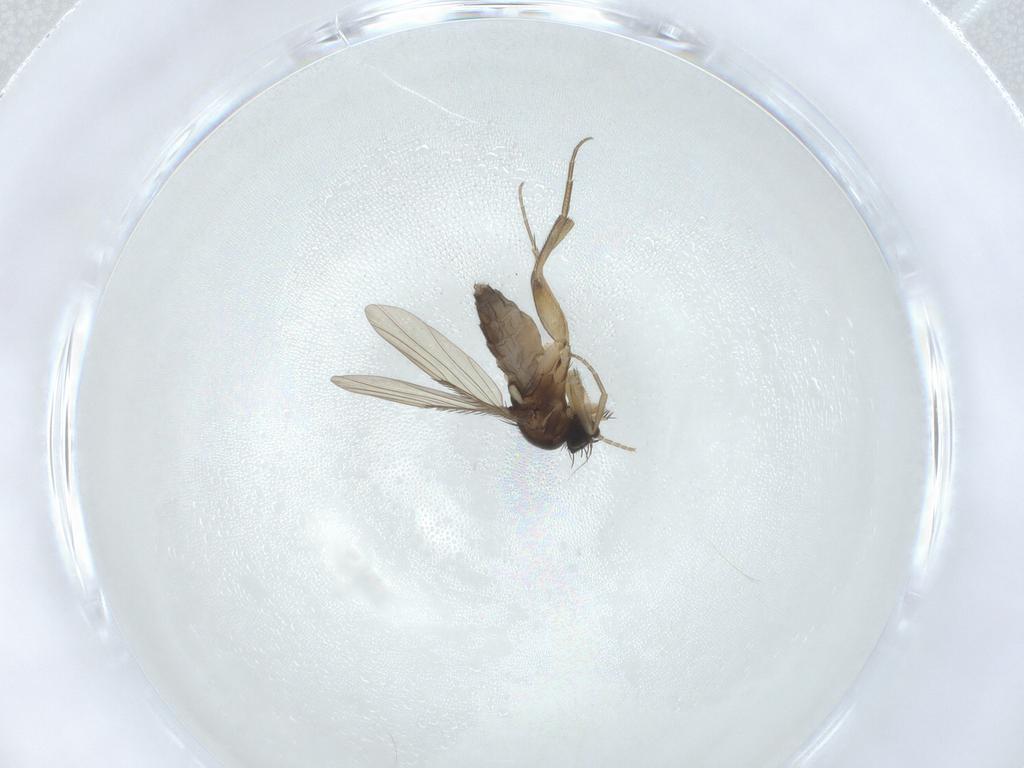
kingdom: Animalia
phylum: Arthropoda
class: Insecta
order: Diptera
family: Phoridae
